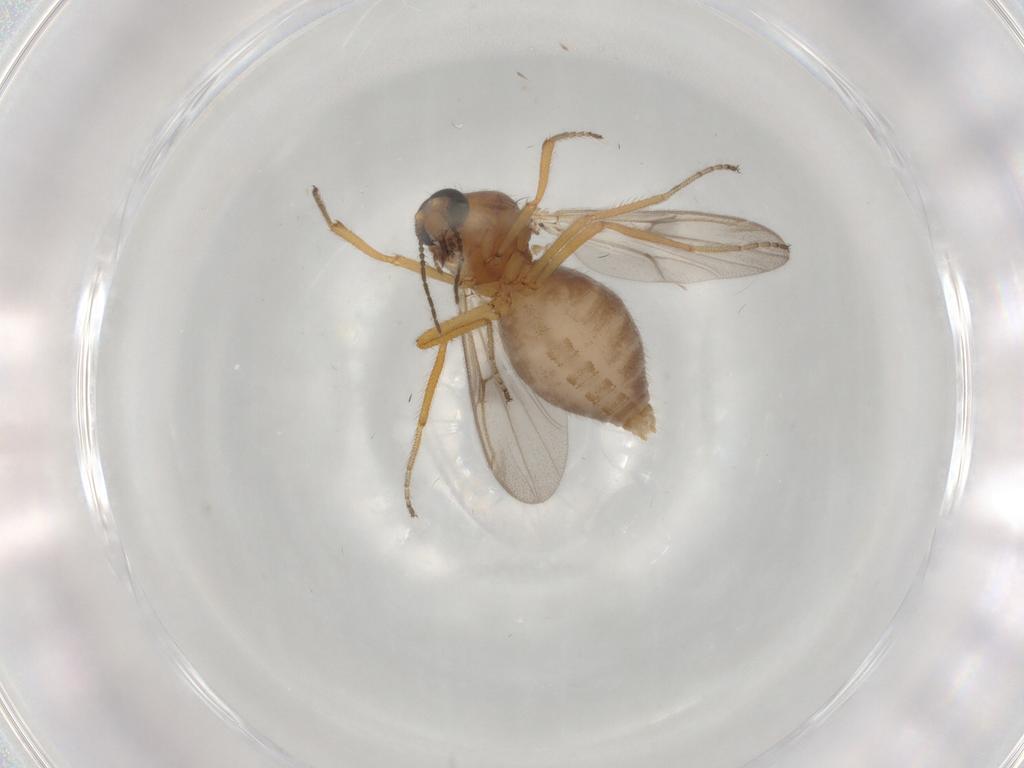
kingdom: Animalia
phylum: Arthropoda
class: Insecta
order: Diptera
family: Ceratopogonidae
